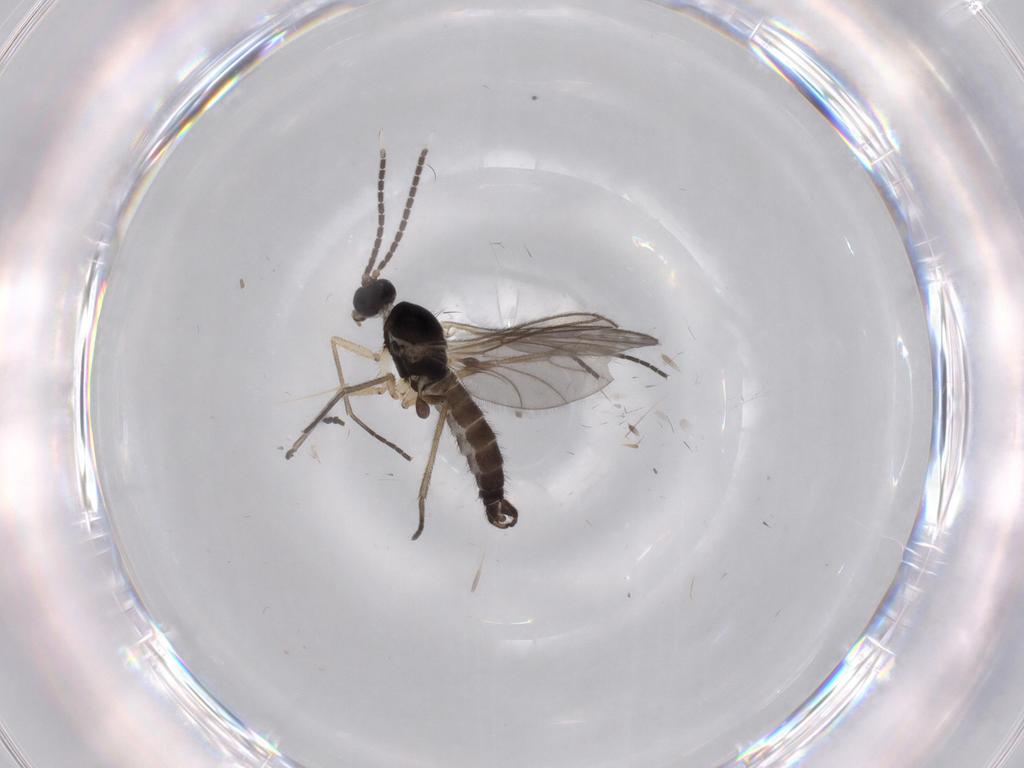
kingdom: Animalia
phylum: Arthropoda
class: Insecta
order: Diptera
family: Sciaridae
